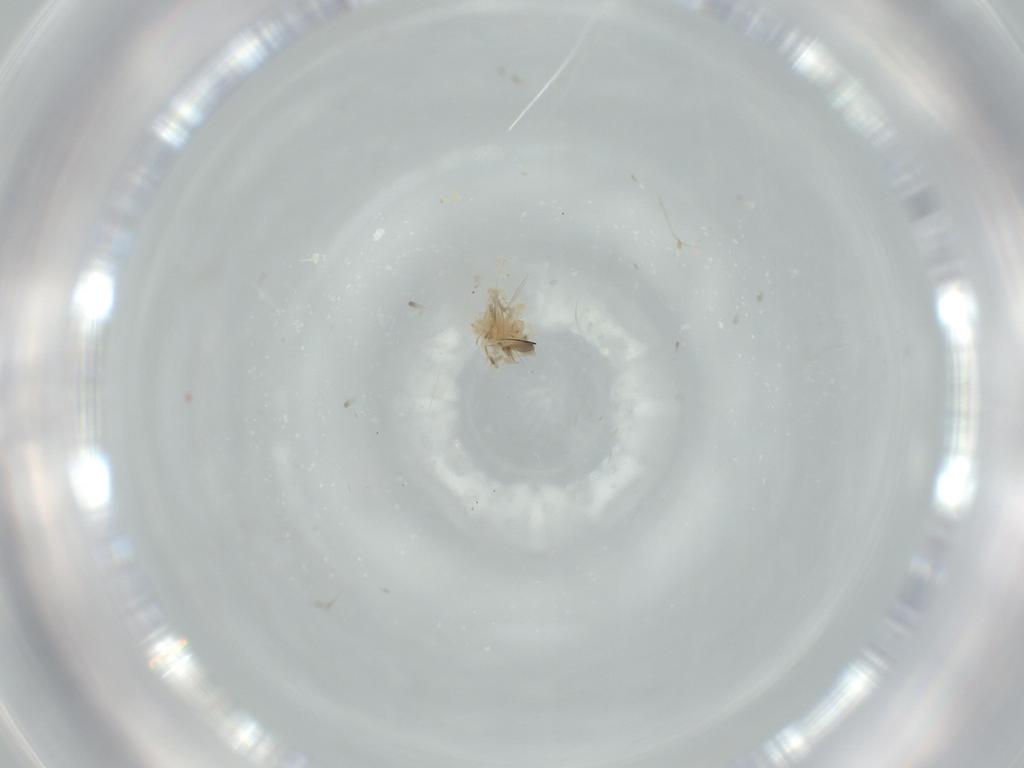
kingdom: Animalia
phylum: Arthropoda
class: Arachnida
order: Trombidiformes
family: Anystidae
